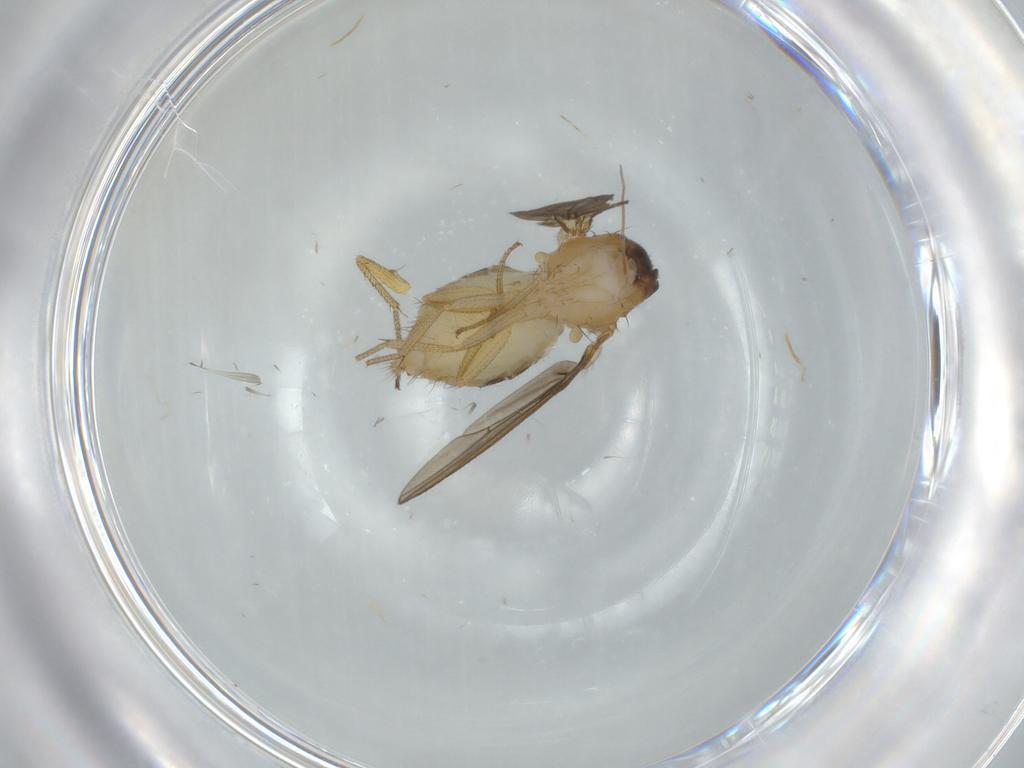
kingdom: Animalia
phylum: Arthropoda
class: Insecta
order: Diptera
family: Drosophilidae
